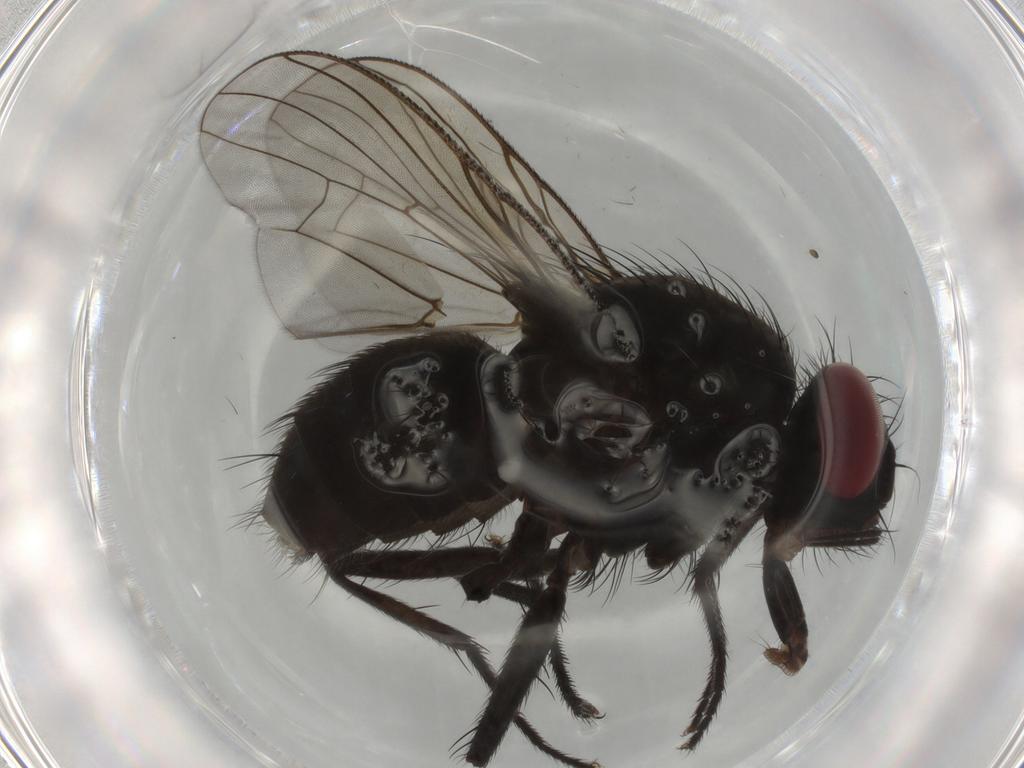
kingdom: Animalia
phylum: Arthropoda
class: Insecta
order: Diptera
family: Muscidae
